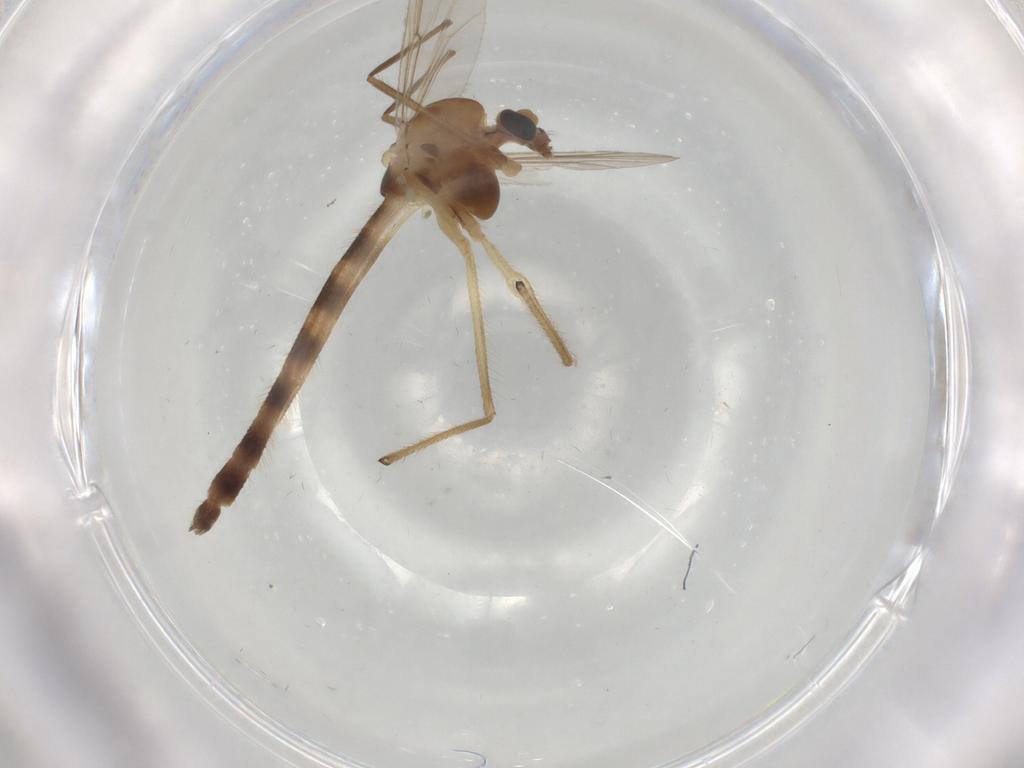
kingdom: Animalia
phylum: Arthropoda
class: Insecta
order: Diptera
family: Chironomidae
